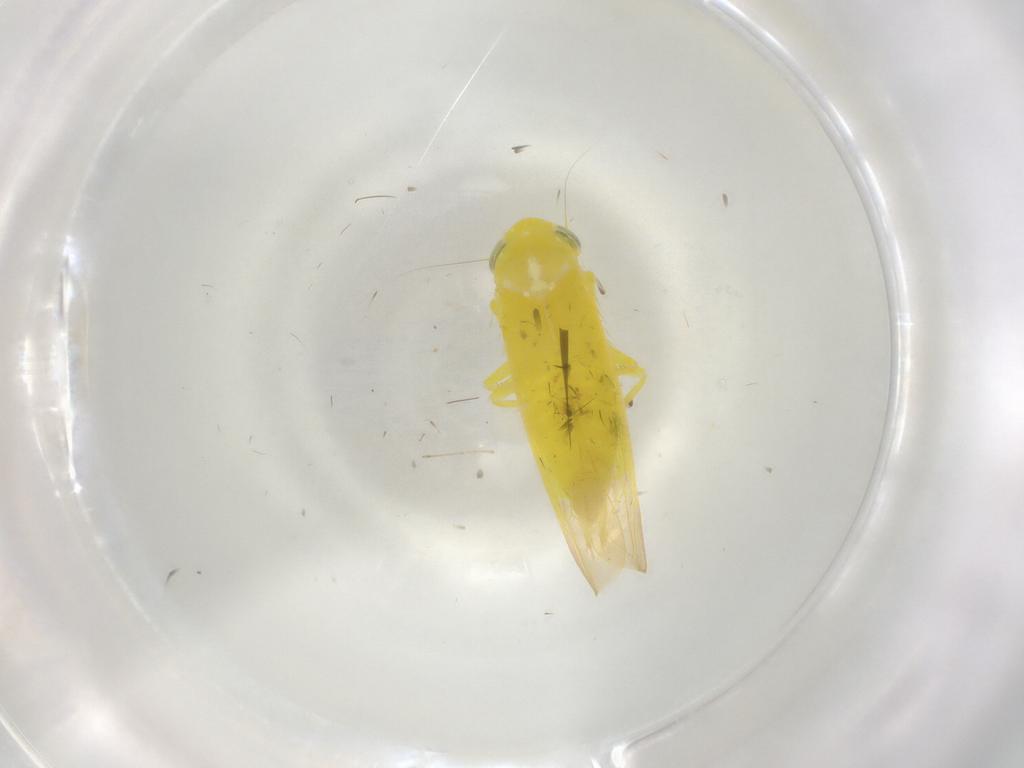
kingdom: Animalia
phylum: Arthropoda
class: Insecta
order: Hemiptera
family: Cicadellidae
